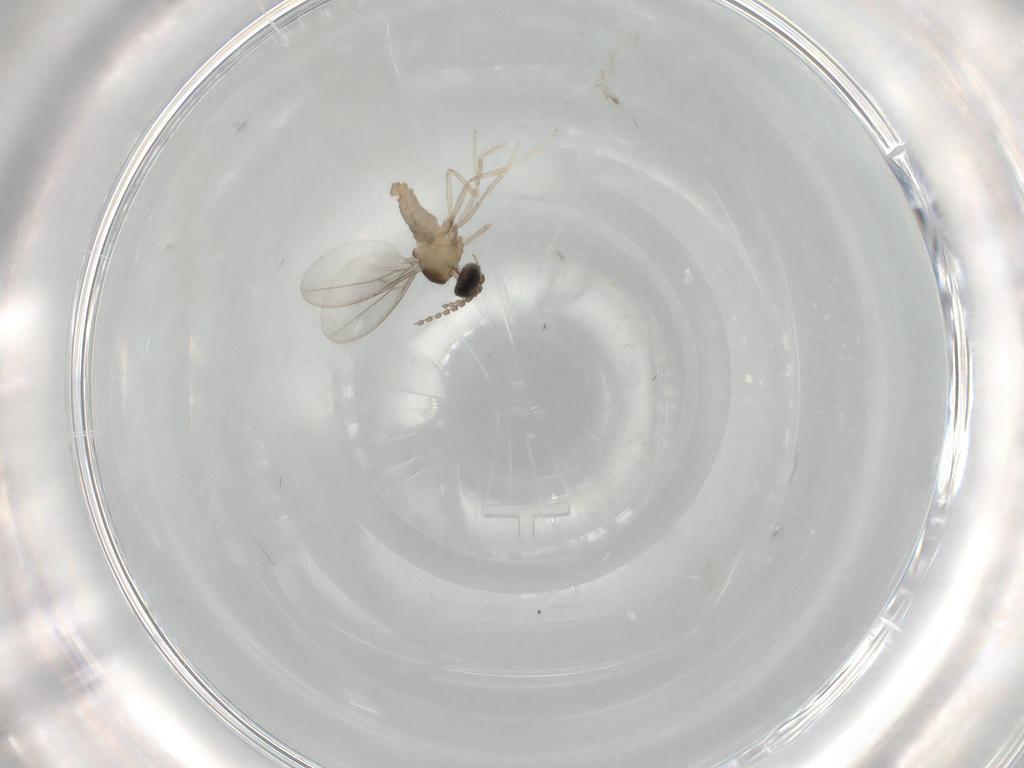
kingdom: Animalia
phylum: Arthropoda
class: Insecta
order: Diptera
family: Cecidomyiidae
